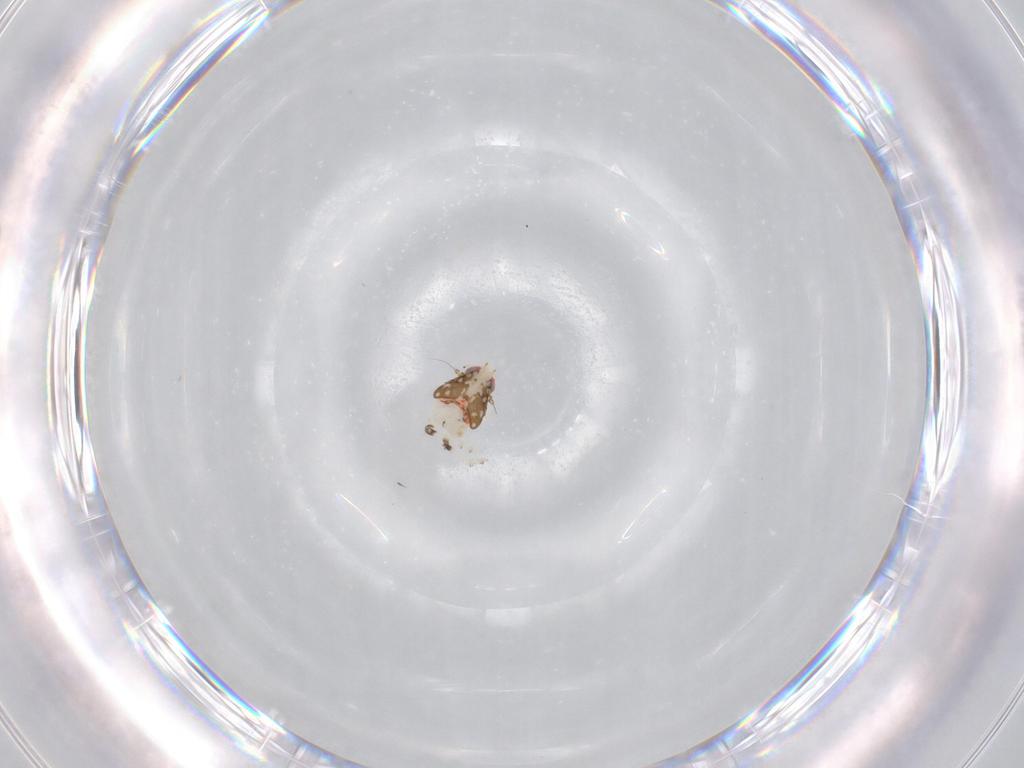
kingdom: Animalia
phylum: Arthropoda
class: Insecta
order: Hemiptera
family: Nogodinidae
